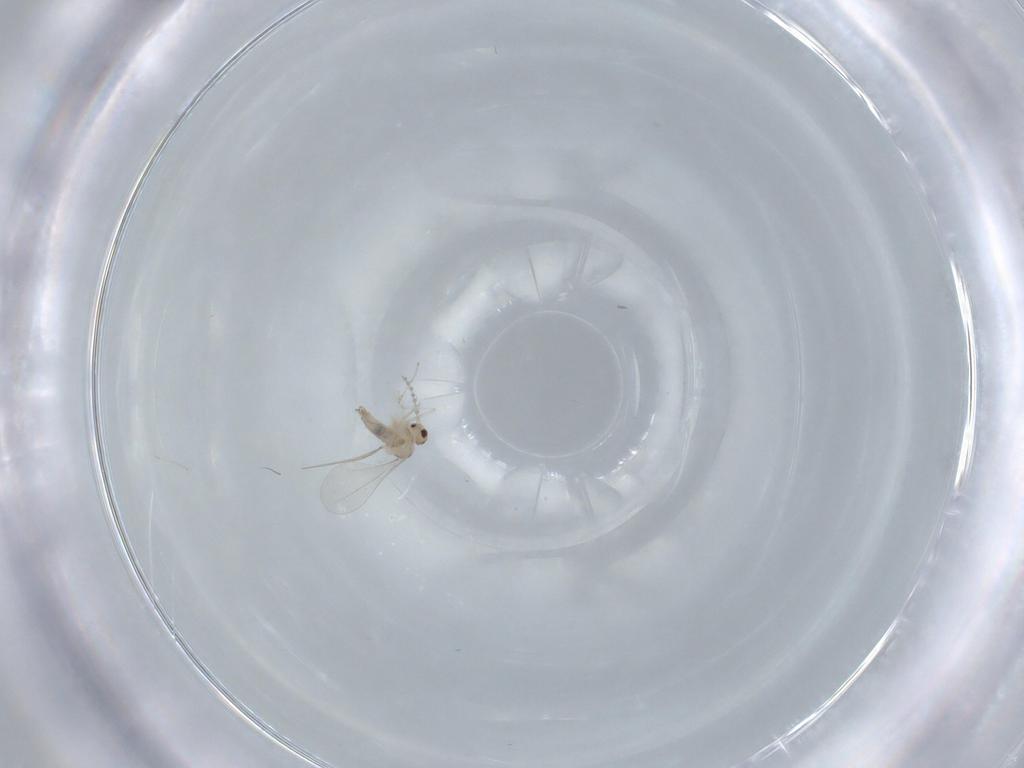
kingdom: Animalia
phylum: Arthropoda
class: Insecta
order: Diptera
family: Cecidomyiidae
